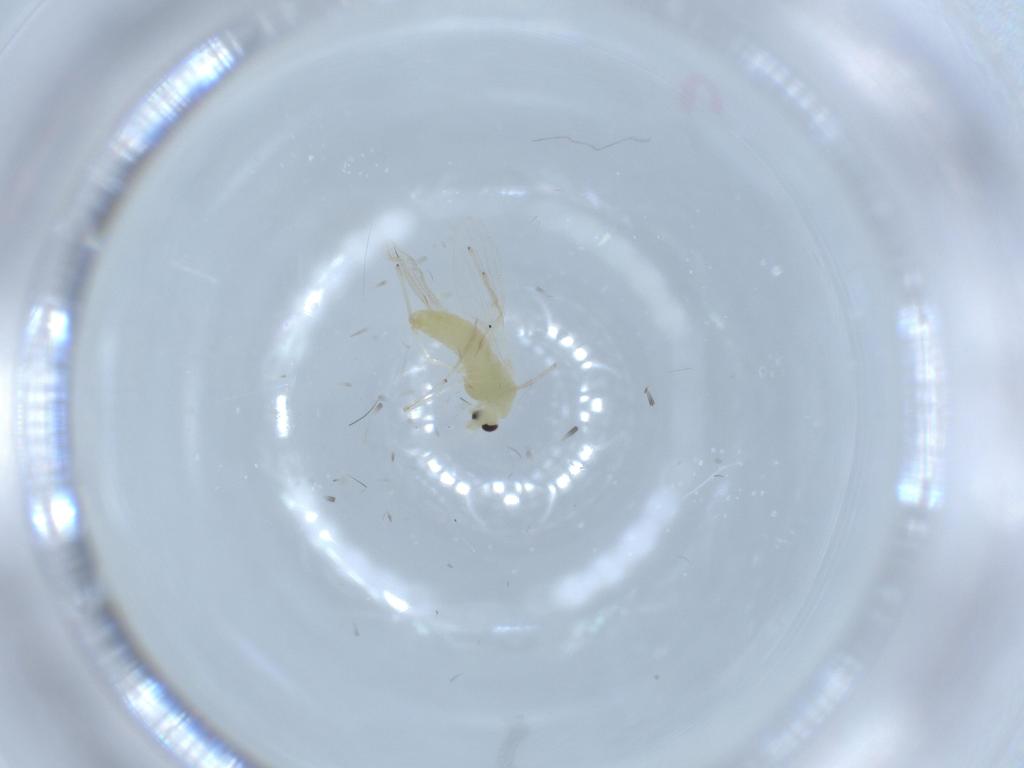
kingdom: Animalia
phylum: Arthropoda
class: Insecta
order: Diptera
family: Chironomidae
